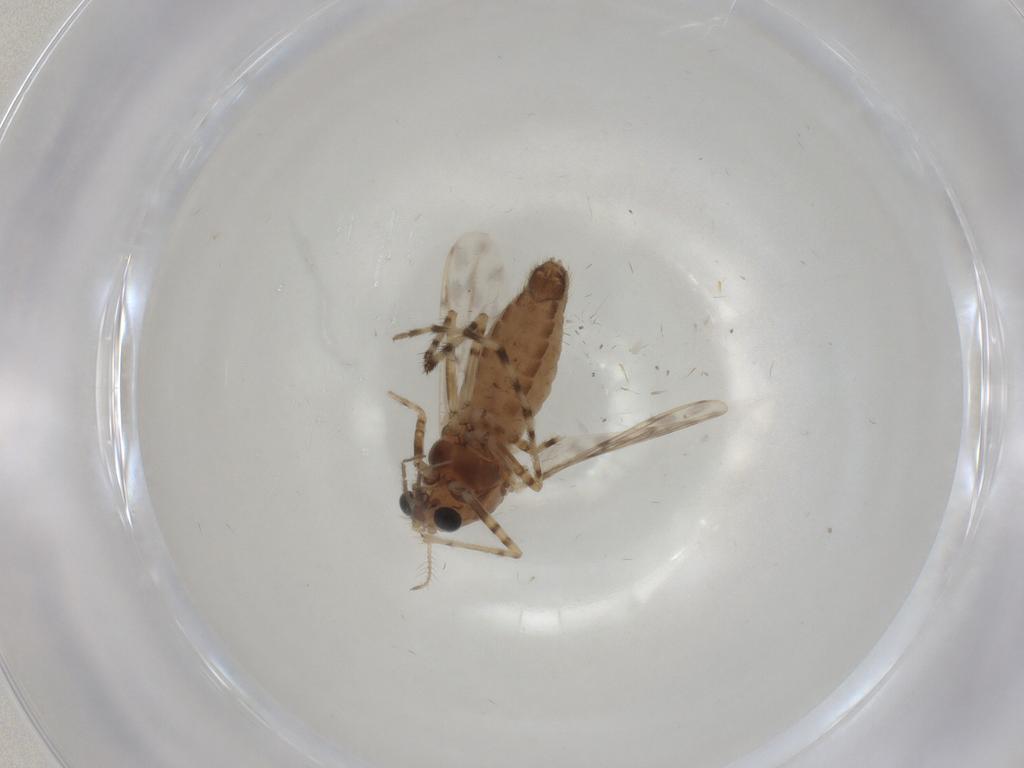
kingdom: Animalia
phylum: Arthropoda
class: Insecta
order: Diptera
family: Chironomidae
